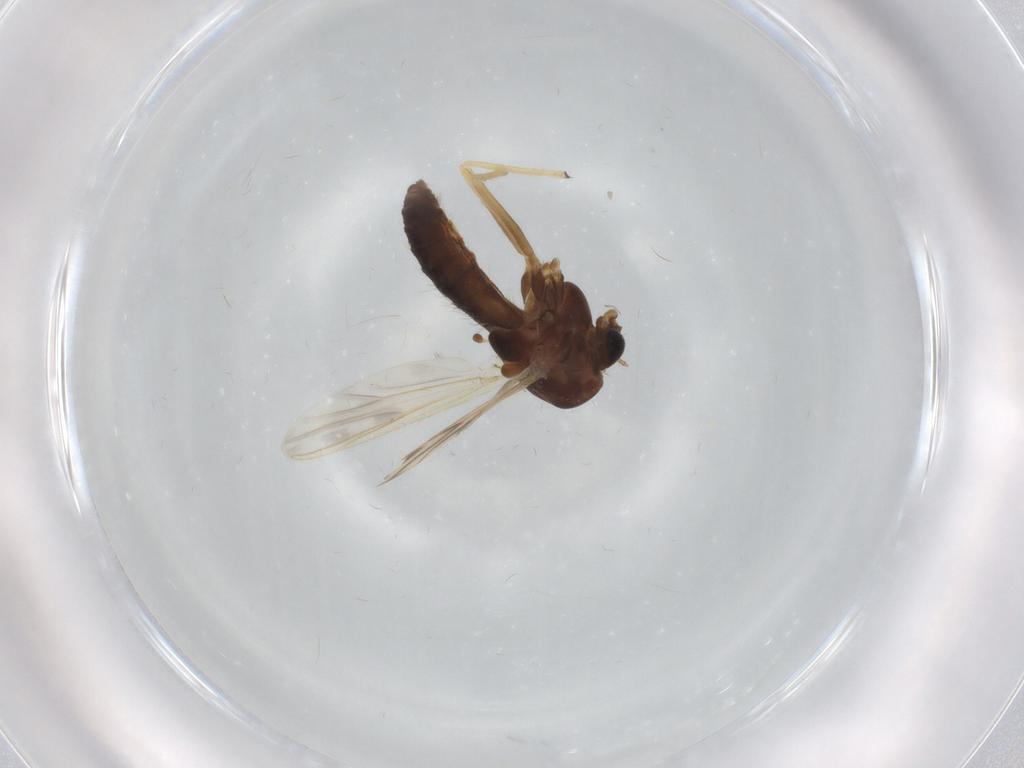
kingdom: Animalia
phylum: Arthropoda
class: Insecta
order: Diptera
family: Chironomidae
